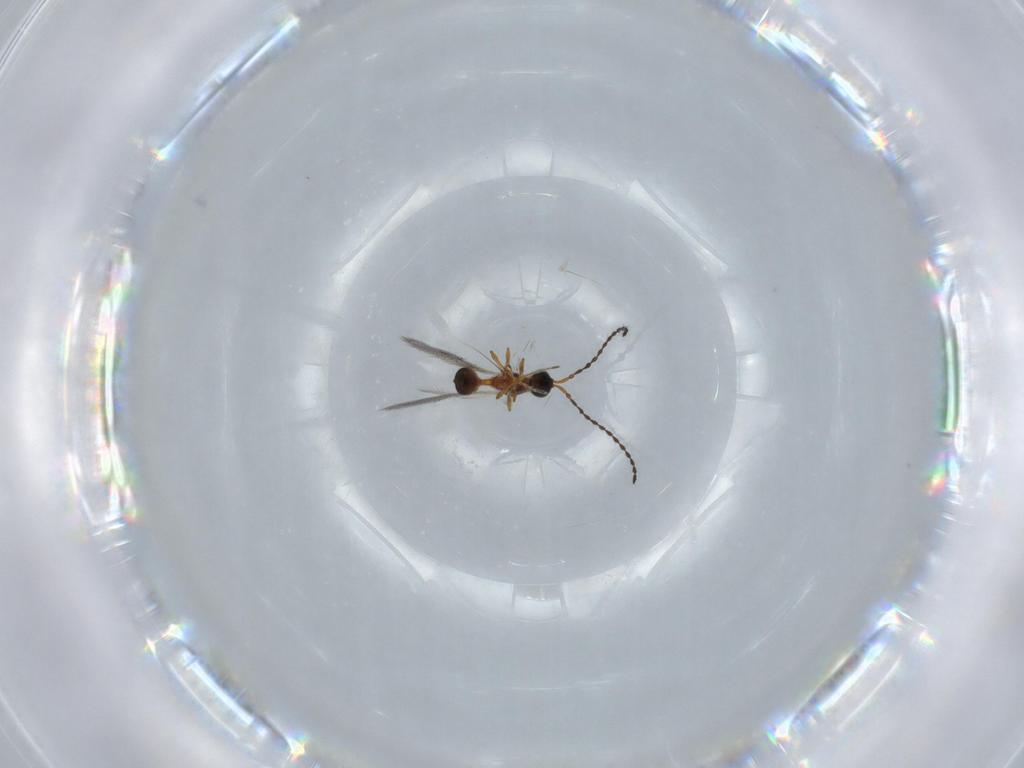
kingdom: Animalia
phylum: Arthropoda
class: Insecta
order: Hymenoptera
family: Diapriidae
